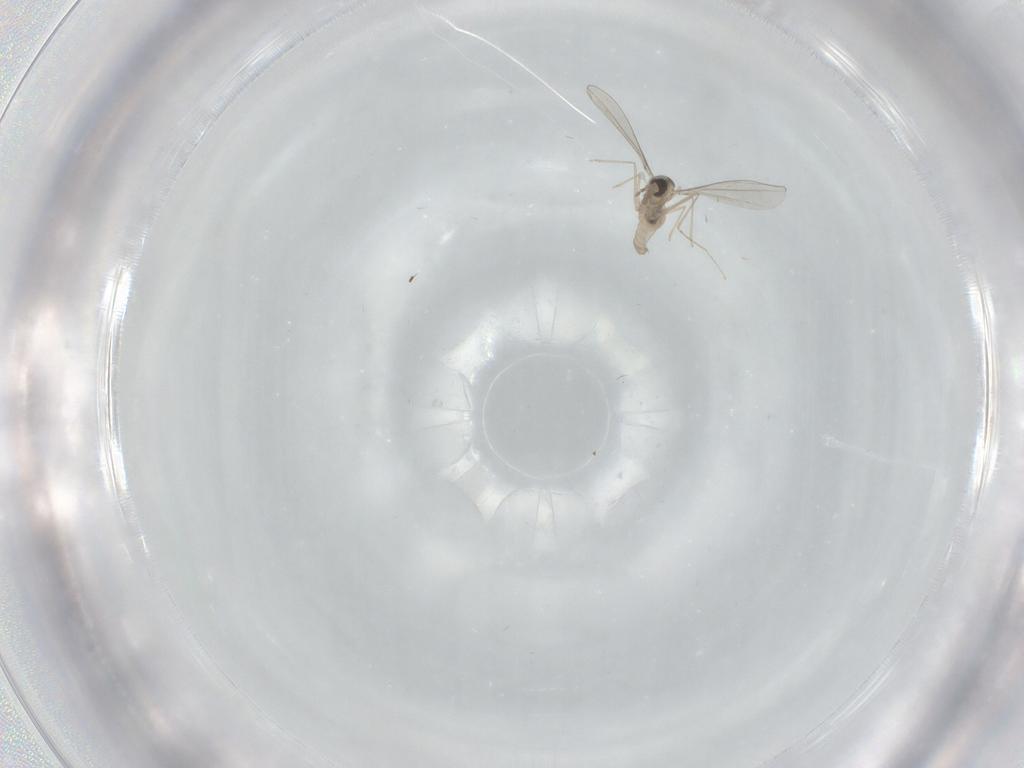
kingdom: Animalia
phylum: Arthropoda
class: Insecta
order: Diptera
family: Cecidomyiidae
